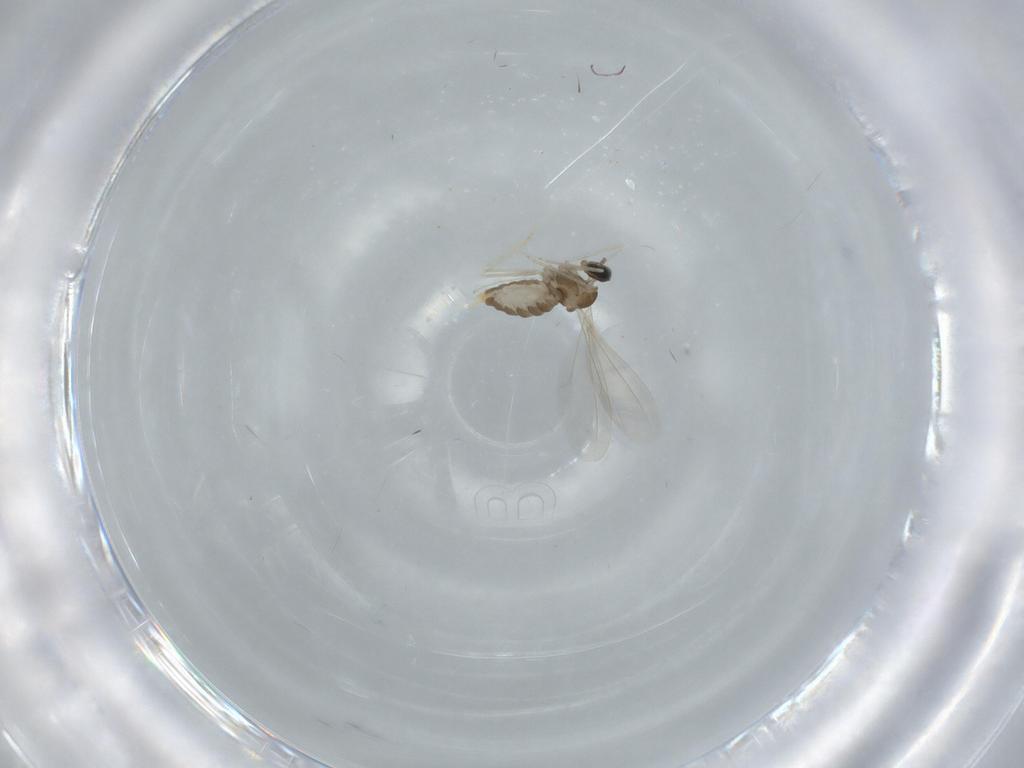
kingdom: Animalia
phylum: Arthropoda
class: Insecta
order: Diptera
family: Cecidomyiidae
